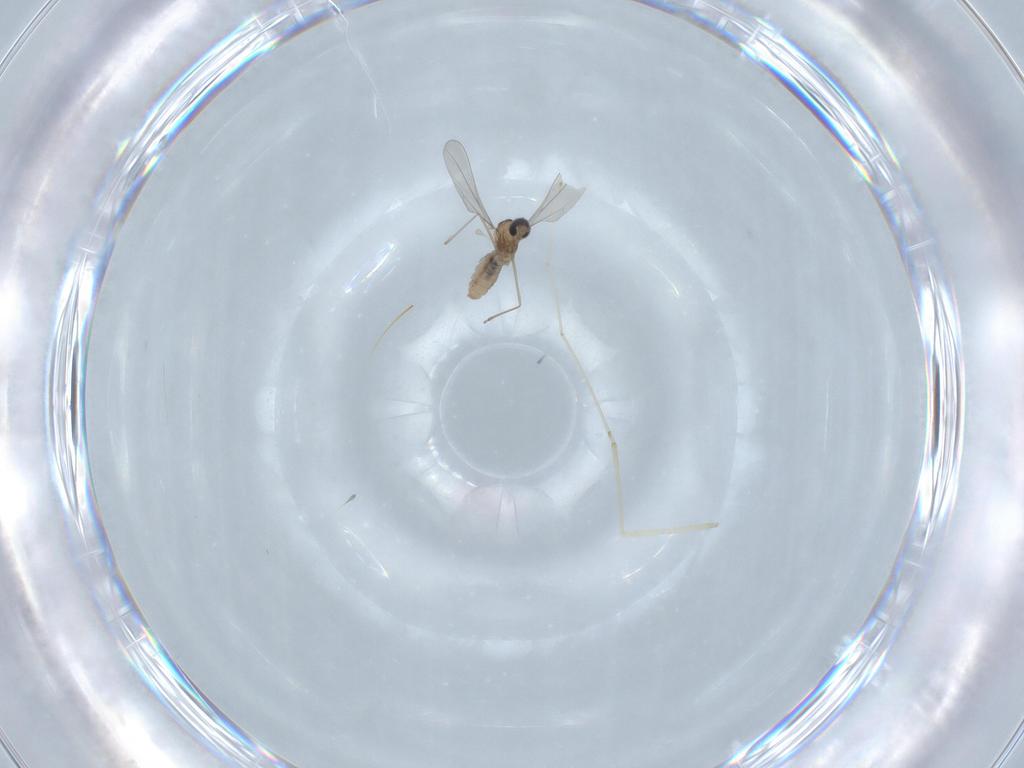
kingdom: Animalia
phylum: Arthropoda
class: Insecta
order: Diptera
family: Cecidomyiidae
